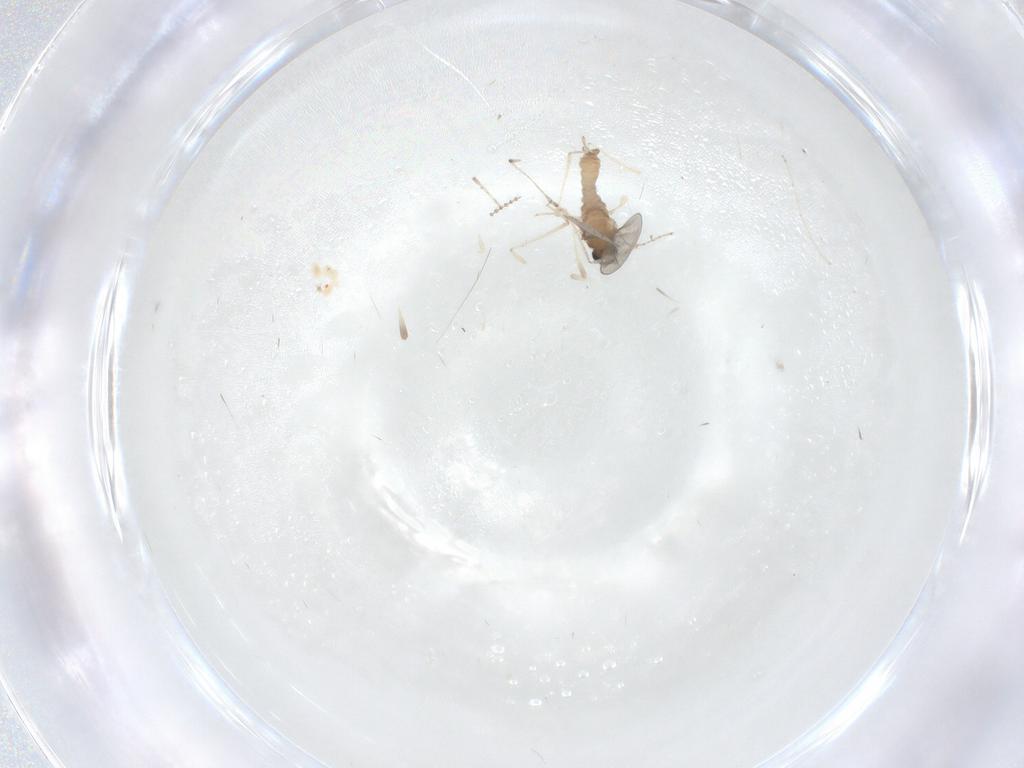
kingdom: Animalia
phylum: Arthropoda
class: Insecta
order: Diptera
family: Cecidomyiidae
